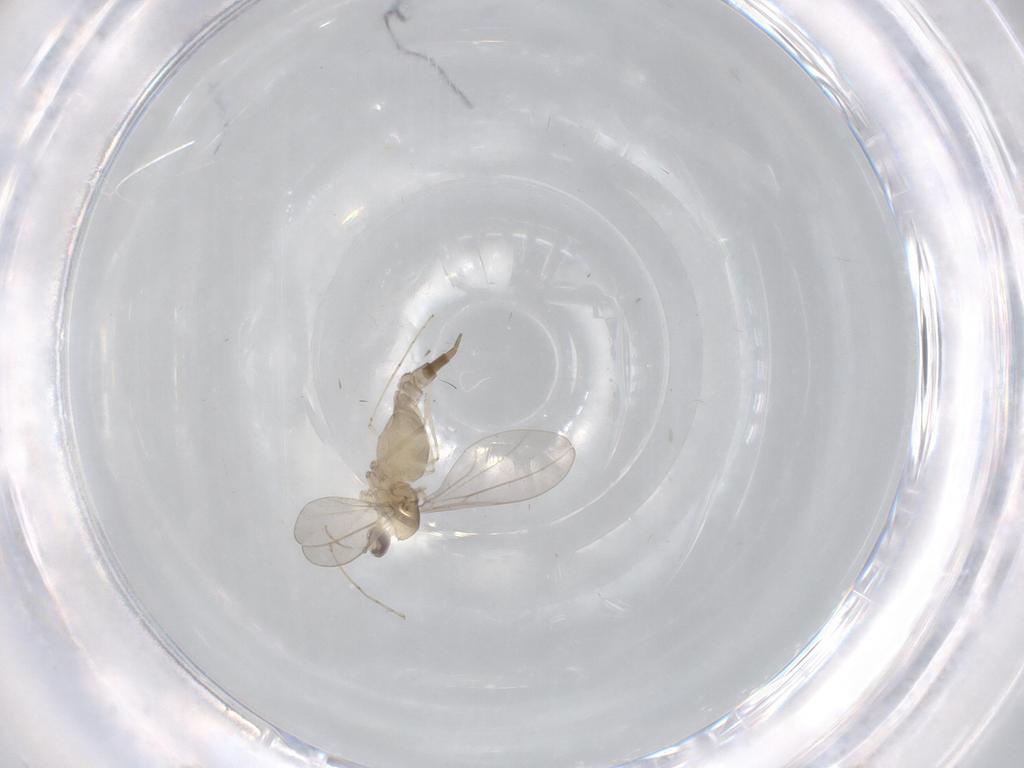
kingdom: Animalia
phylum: Arthropoda
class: Insecta
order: Diptera
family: Cecidomyiidae
